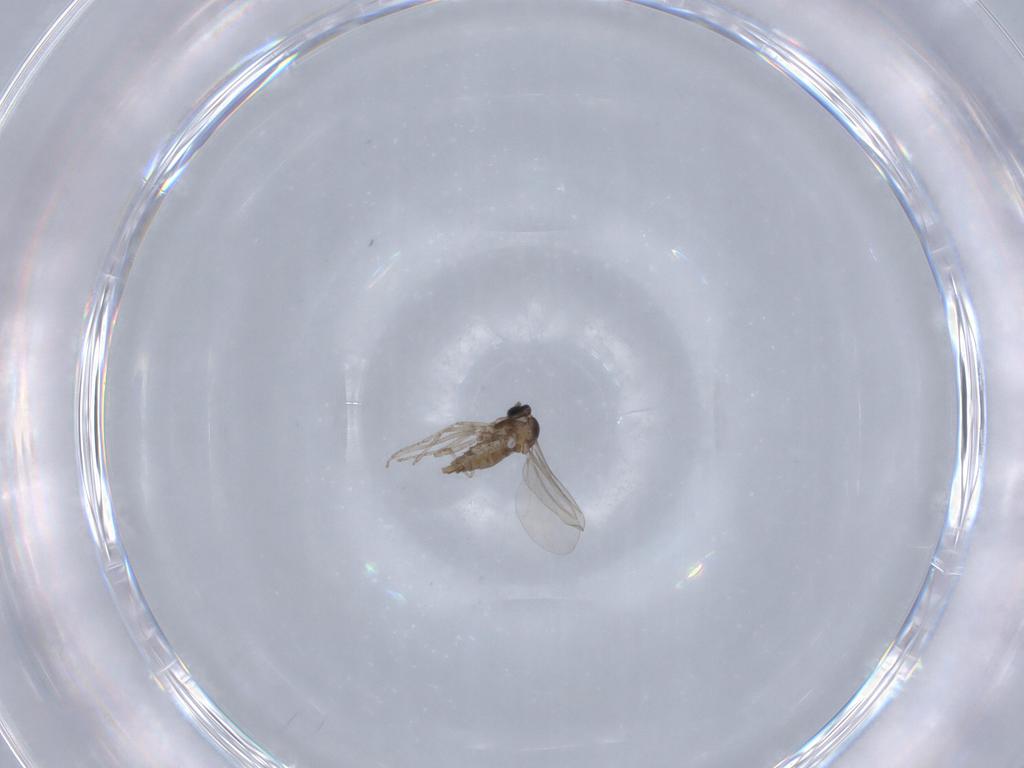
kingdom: Animalia
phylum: Arthropoda
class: Insecta
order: Diptera
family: Cecidomyiidae
